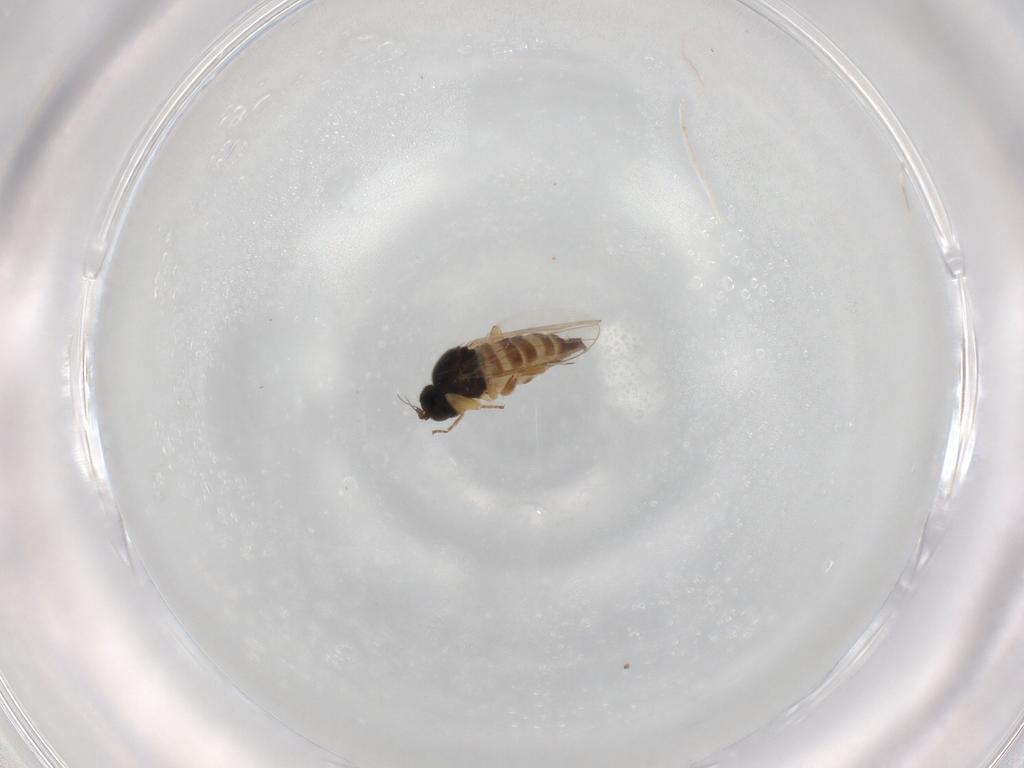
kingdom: Animalia
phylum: Arthropoda
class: Insecta
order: Diptera
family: Hybotidae
